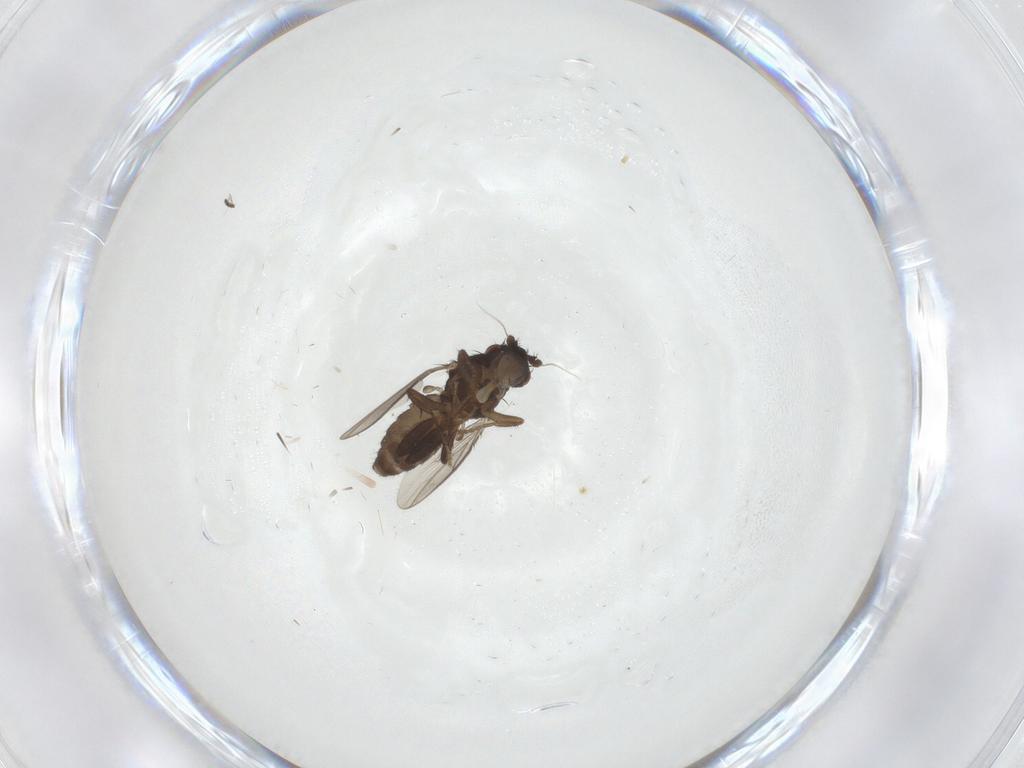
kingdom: Animalia
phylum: Arthropoda
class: Insecta
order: Diptera
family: Sphaeroceridae
